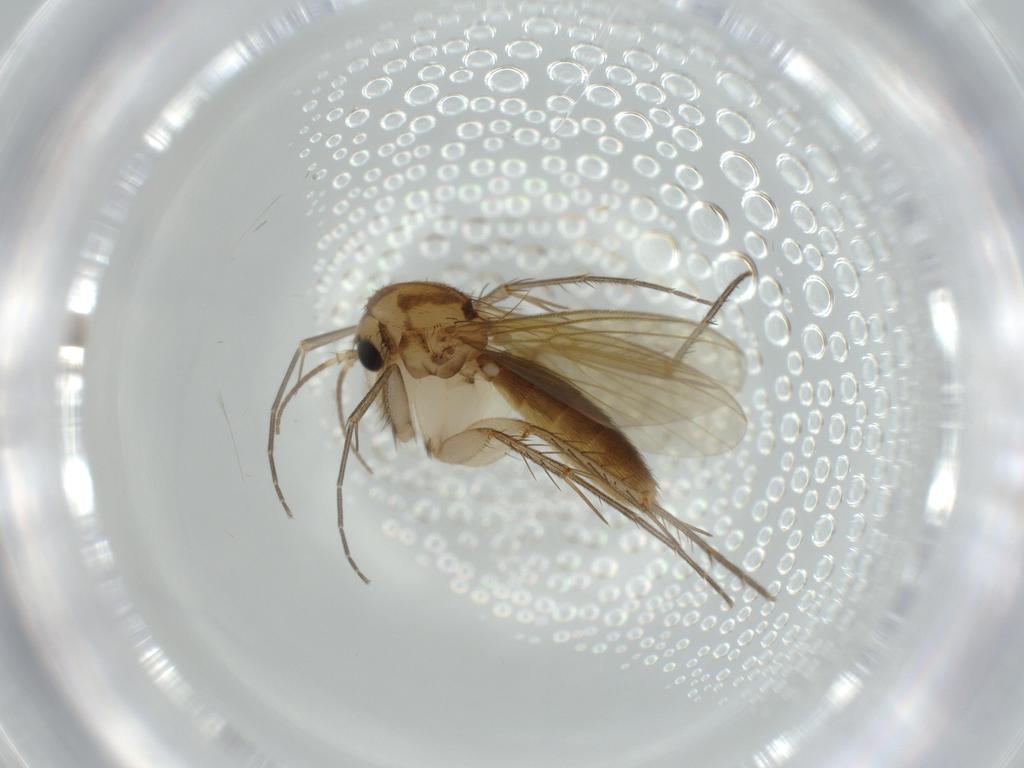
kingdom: Animalia
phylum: Arthropoda
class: Insecta
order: Diptera
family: Mycetophilidae
